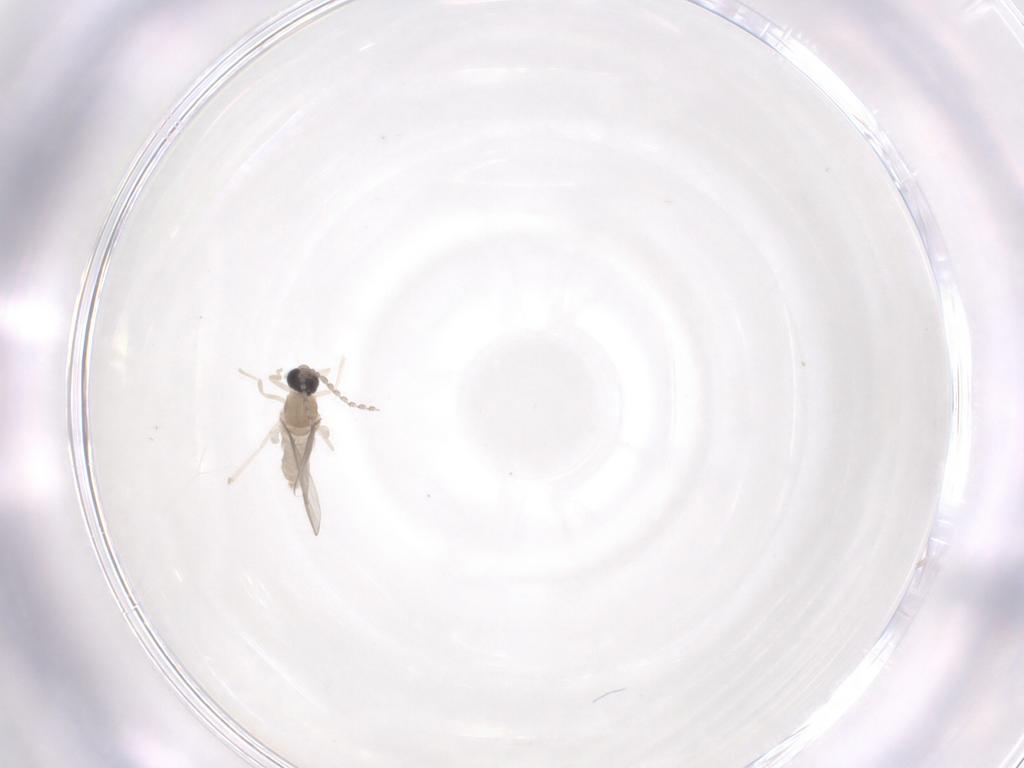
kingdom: Animalia
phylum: Arthropoda
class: Insecta
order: Diptera
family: Cecidomyiidae
